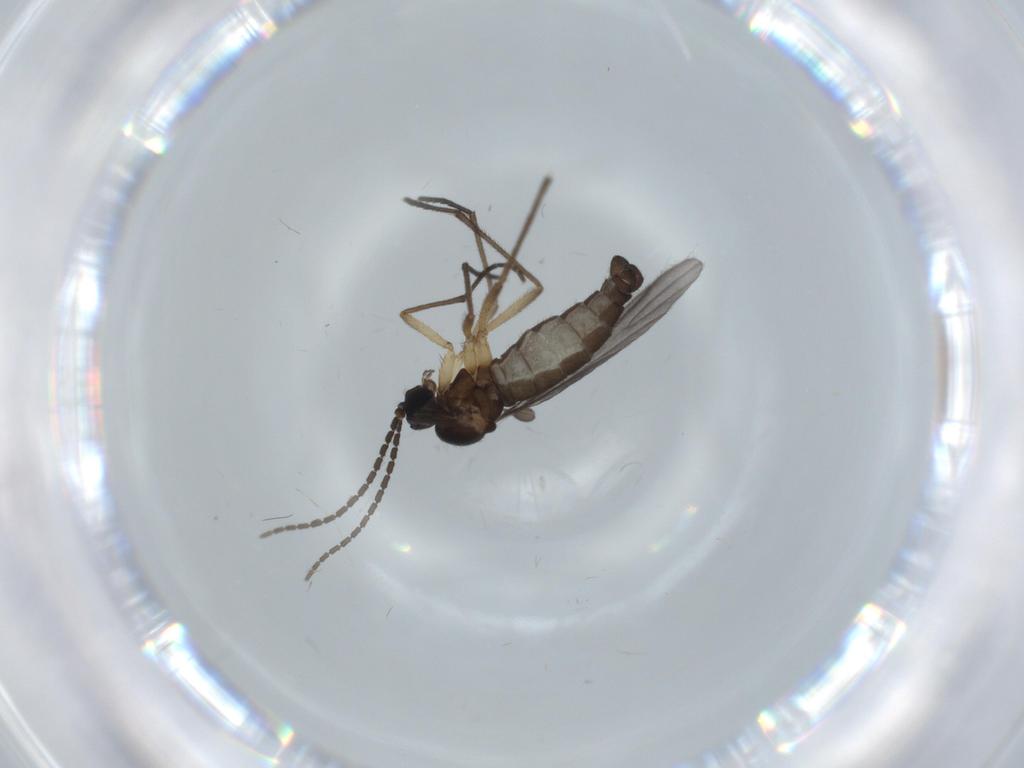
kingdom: Animalia
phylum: Arthropoda
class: Insecta
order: Diptera
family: Sciaridae
